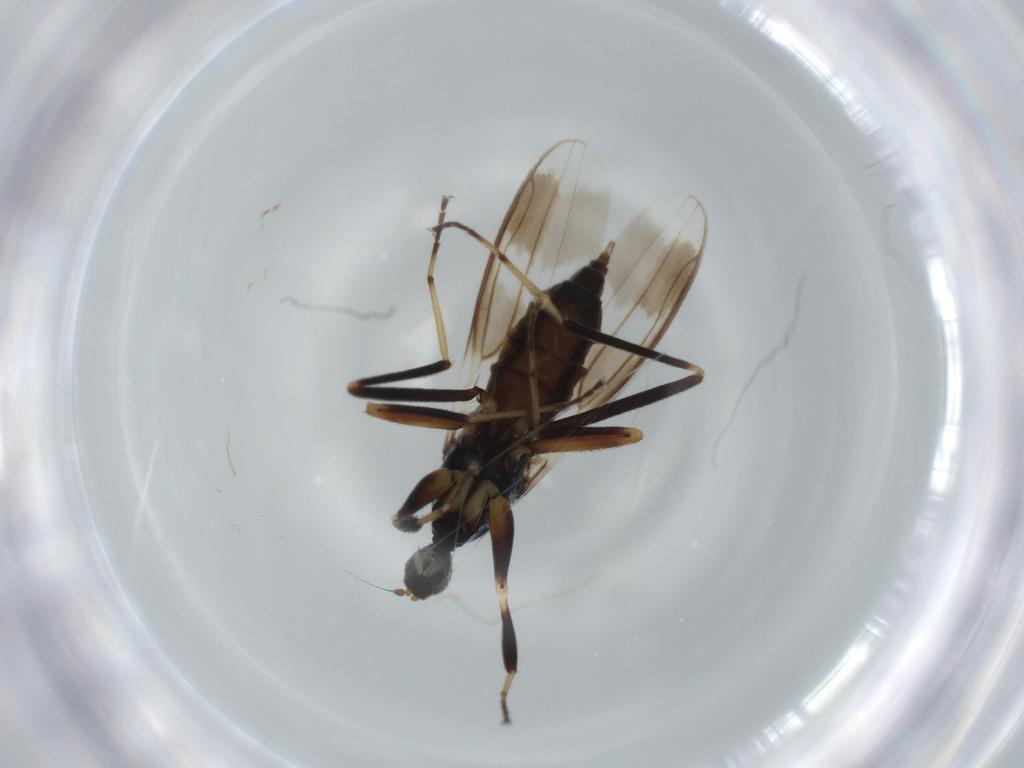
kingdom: Animalia
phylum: Arthropoda
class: Insecta
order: Diptera
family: Hybotidae
